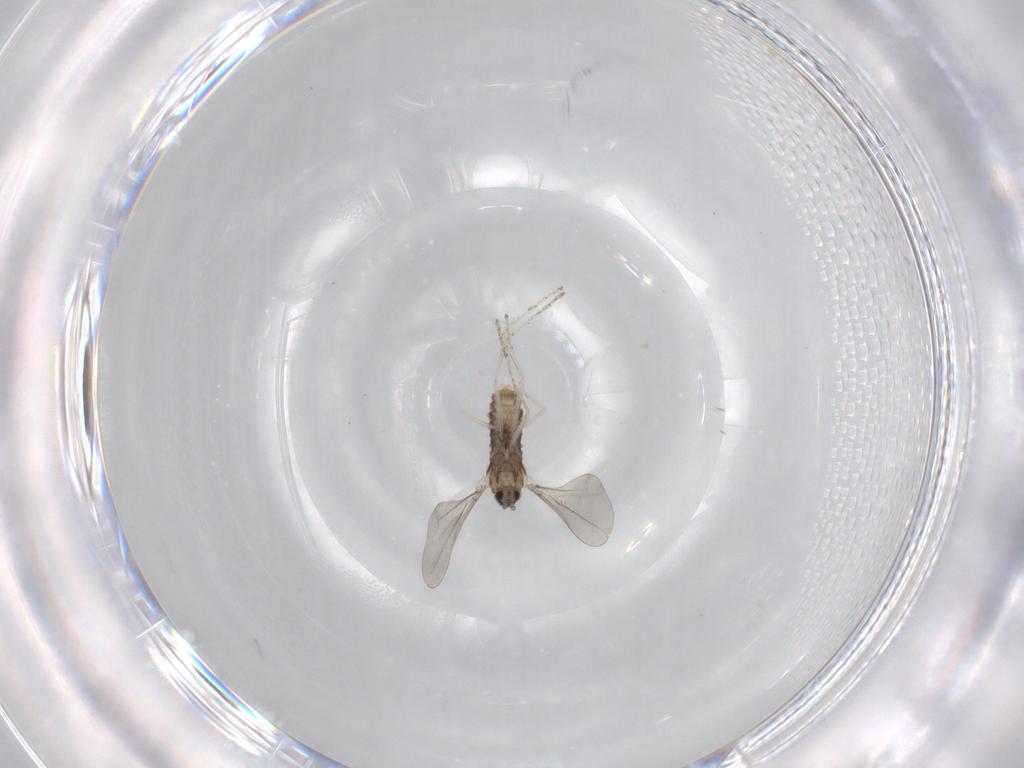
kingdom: Animalia
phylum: Arthropoda
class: Insecta
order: Diptera
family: Cecidomyiidae
